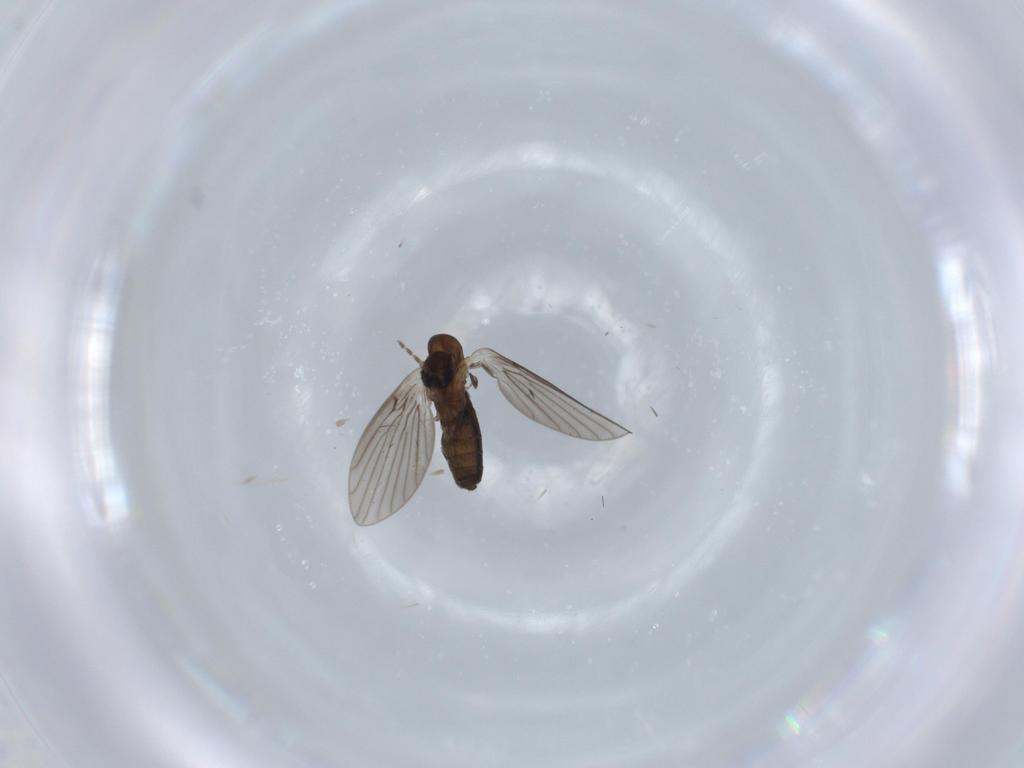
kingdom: Animalia
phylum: Arthropoda
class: Insecta
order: Diptera
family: Psychodidae
